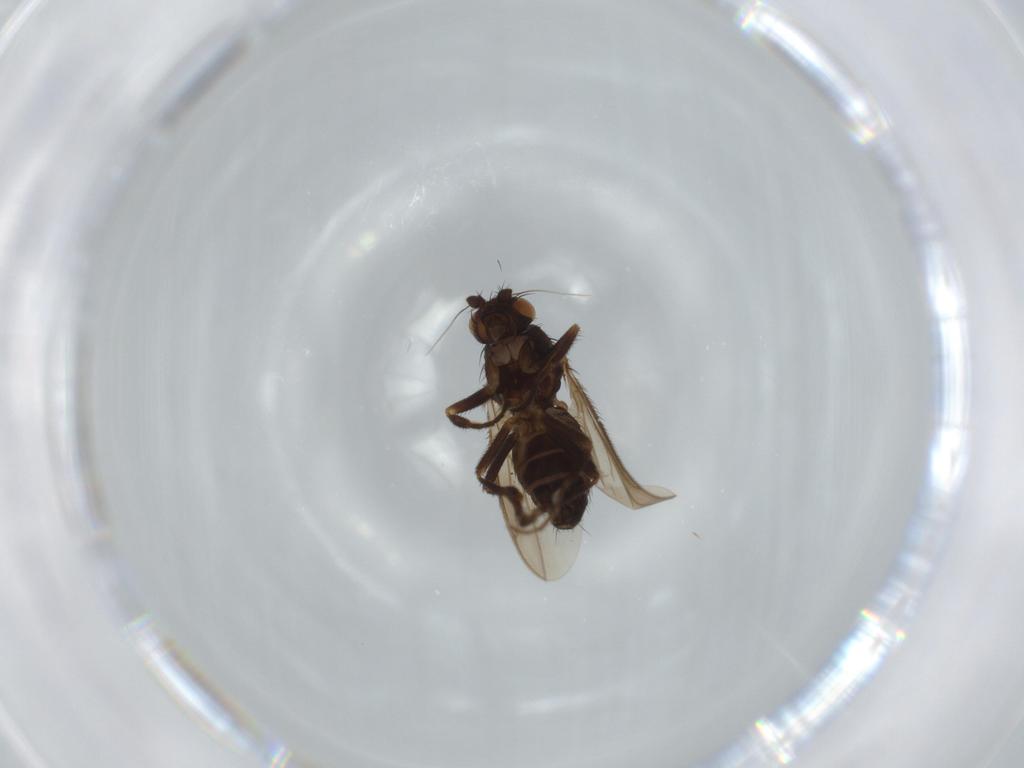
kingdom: Animalia
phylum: Arthropoda
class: Insecta
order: Diptera
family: Sphaeroceridae
